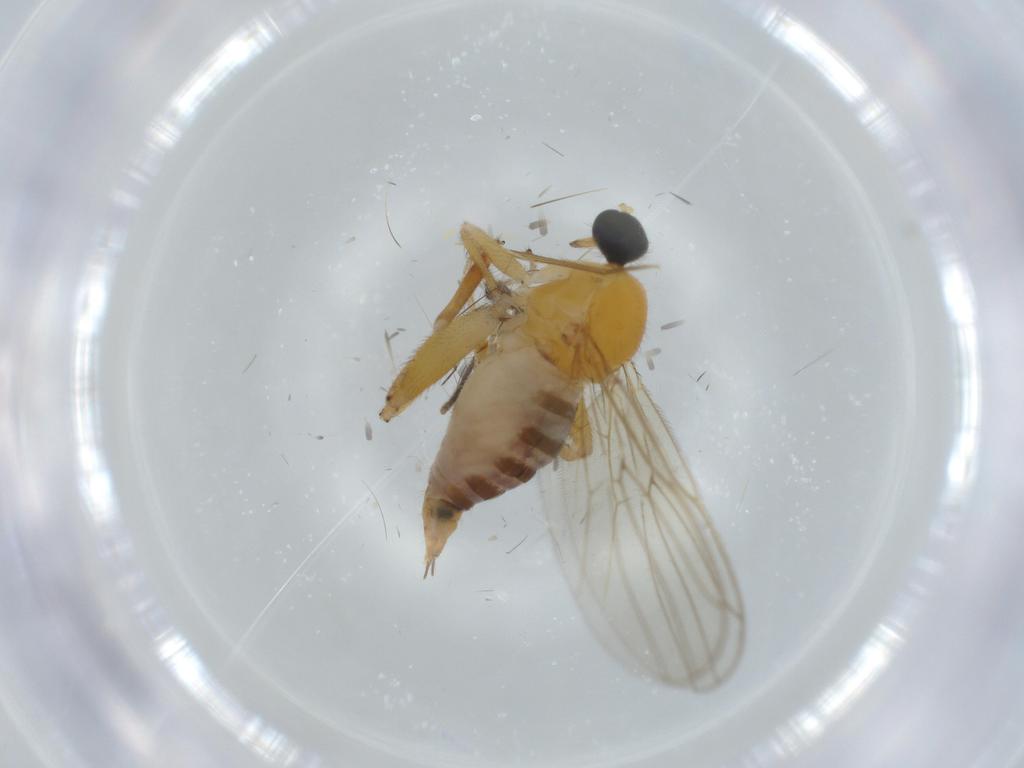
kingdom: Animalia
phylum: Arthropoda
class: Insecta
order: Diptera
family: Hybotidae
